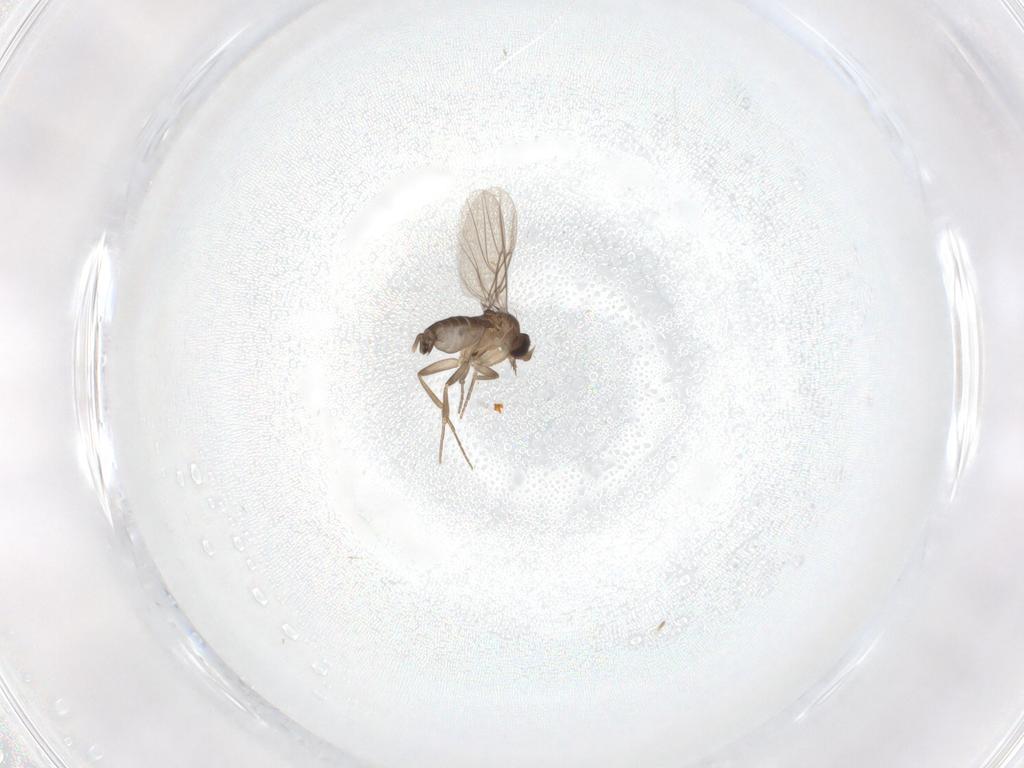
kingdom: Animalia
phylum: Arthropoda
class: Insecta
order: Diptera
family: Phoridae
